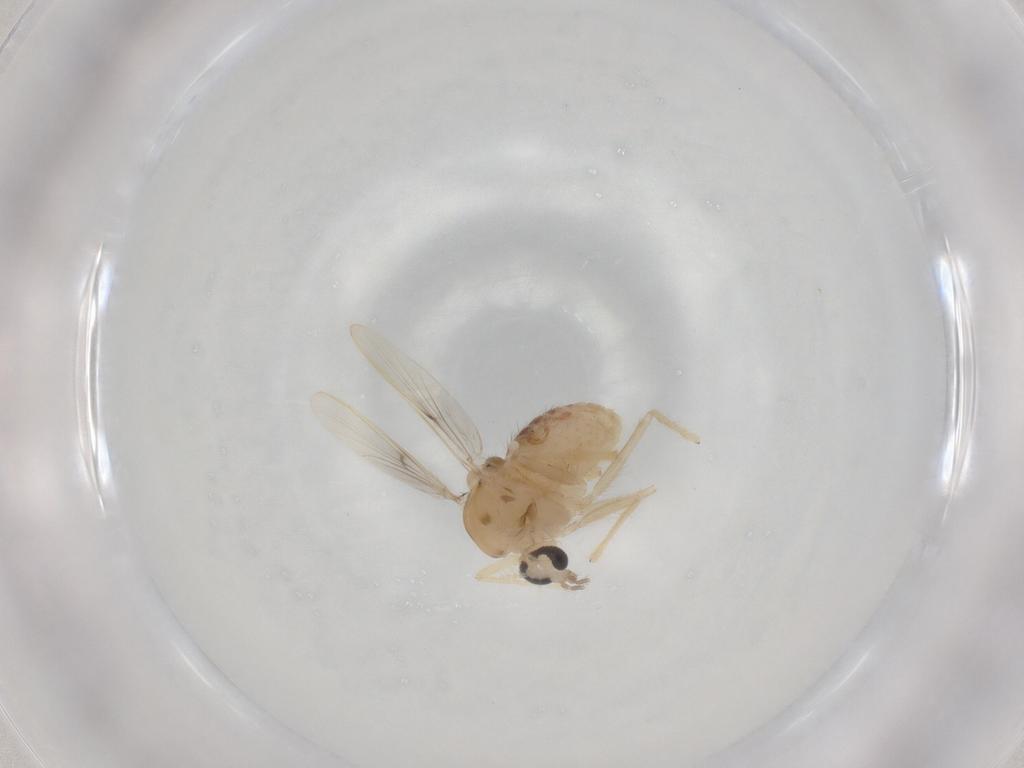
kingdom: Animalia
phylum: Arthropoda
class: Insecta
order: Diptera
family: Chironomidae
